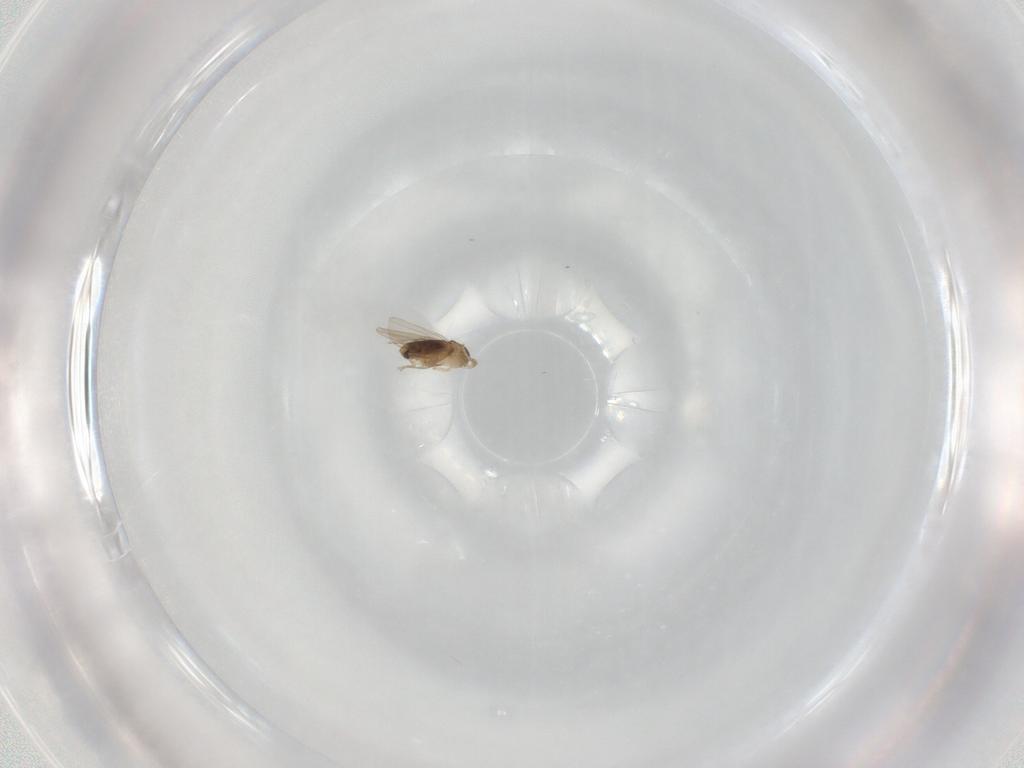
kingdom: Animalia
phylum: Arthropoda
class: Insecta
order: Diptera
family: Phoridae
